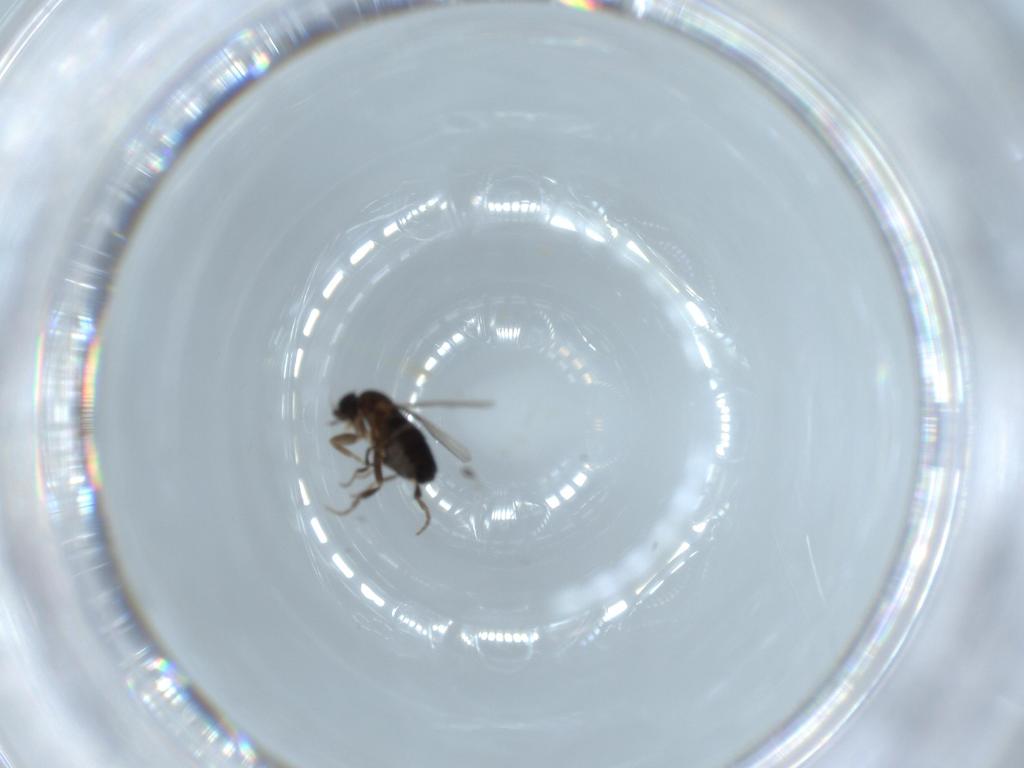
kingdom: Animalia
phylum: Arthropoda
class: Insecta
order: Diptera
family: Phoridae
